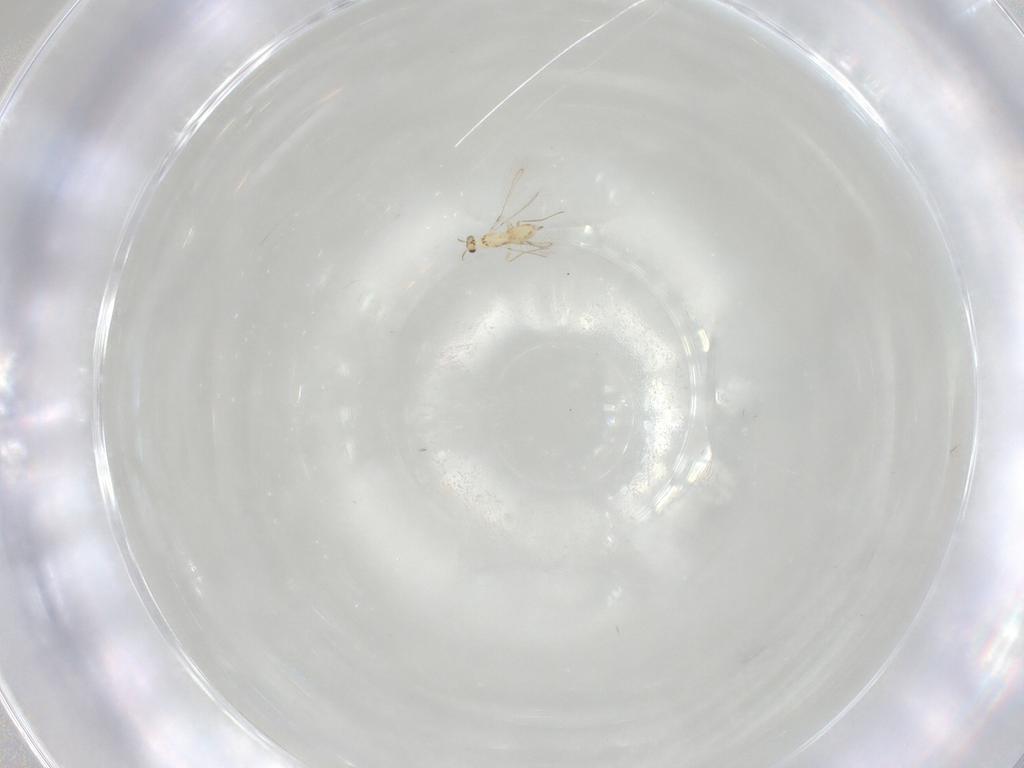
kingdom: Animalia
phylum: Arthropoda
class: Insecta
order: Hymenoptera
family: Mymaridae
